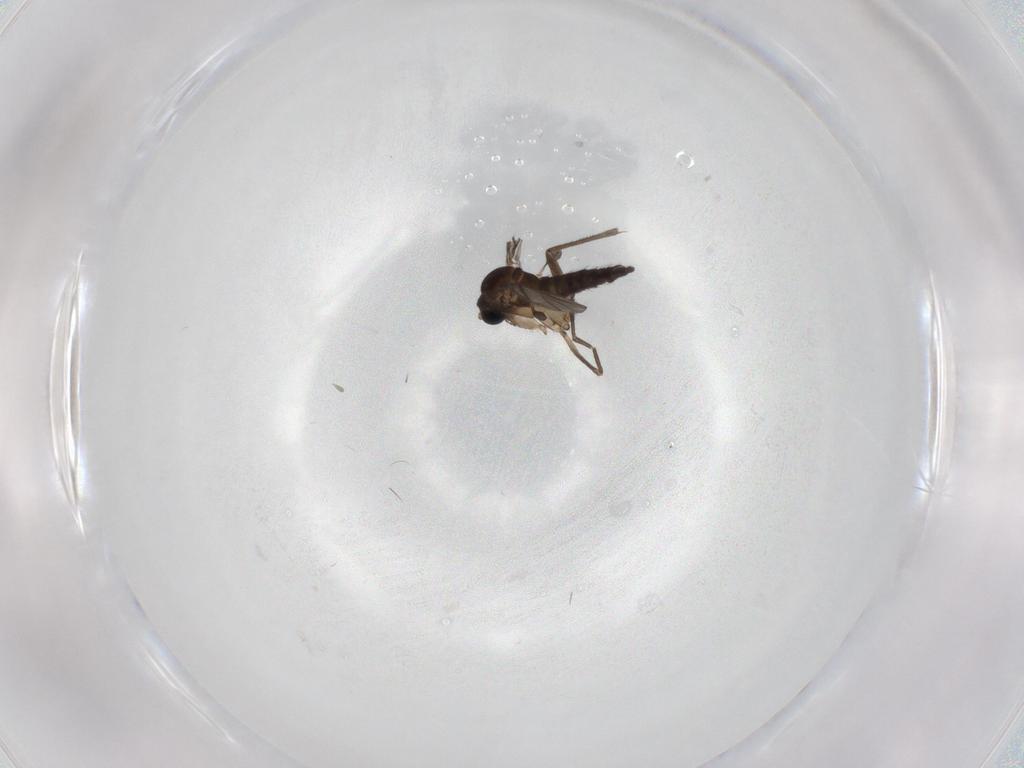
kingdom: Animalia
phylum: Arthropoda
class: Insecta
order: Diptera
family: Sciaridae
